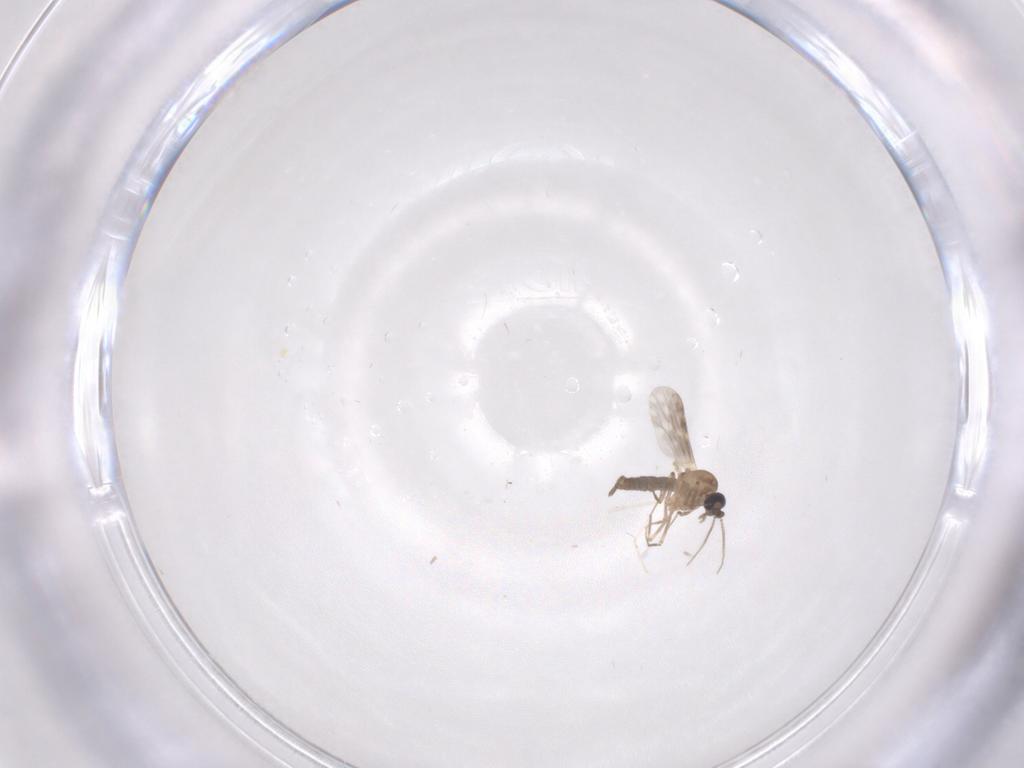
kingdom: Animalia
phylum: Arthropoda
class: Insecta
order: Diptera
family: Cecidomyiidae
